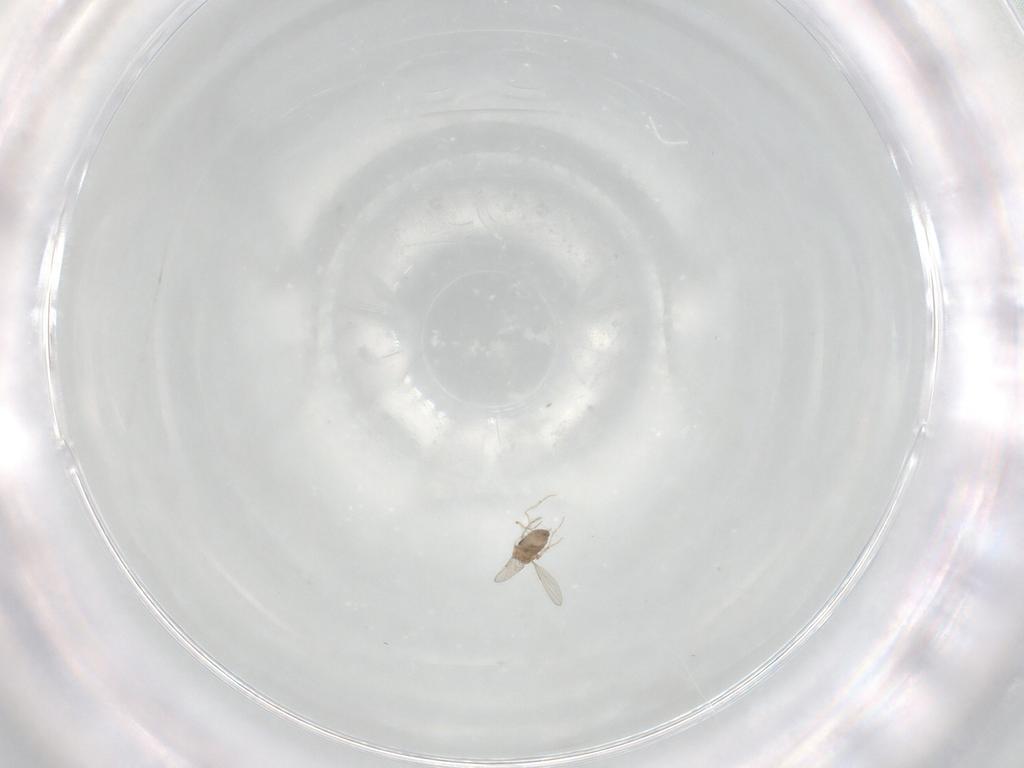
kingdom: Animalia
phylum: Arthropoda
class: Insecta
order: Diptera
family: Ceratopogonidae
